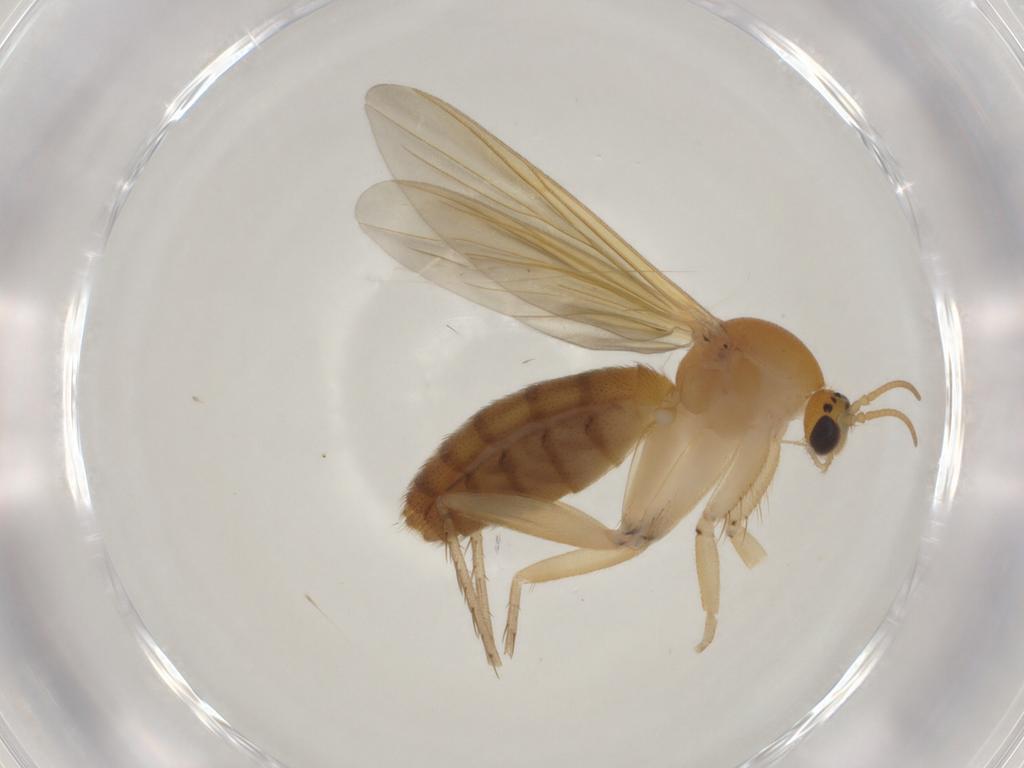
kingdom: Animalia
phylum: Arthropoda
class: Insecta
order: Diptera
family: Mycetophilidae
